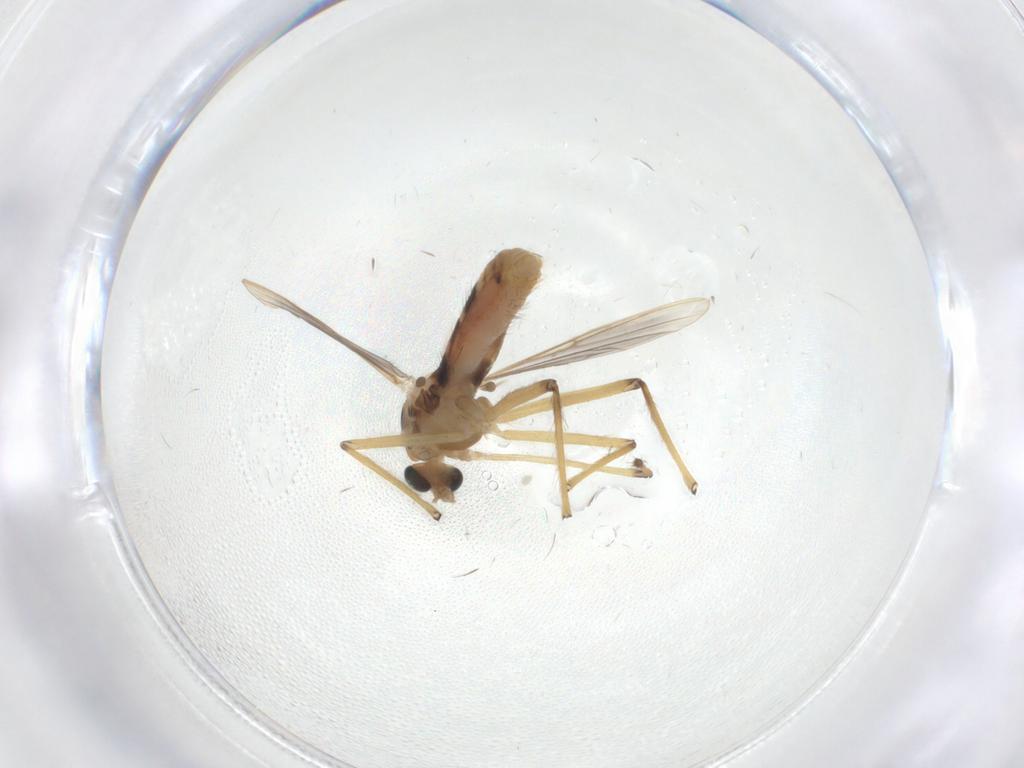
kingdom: Animalia
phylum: Arthropoda
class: Insecta
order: Diptera
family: Chironomidae
